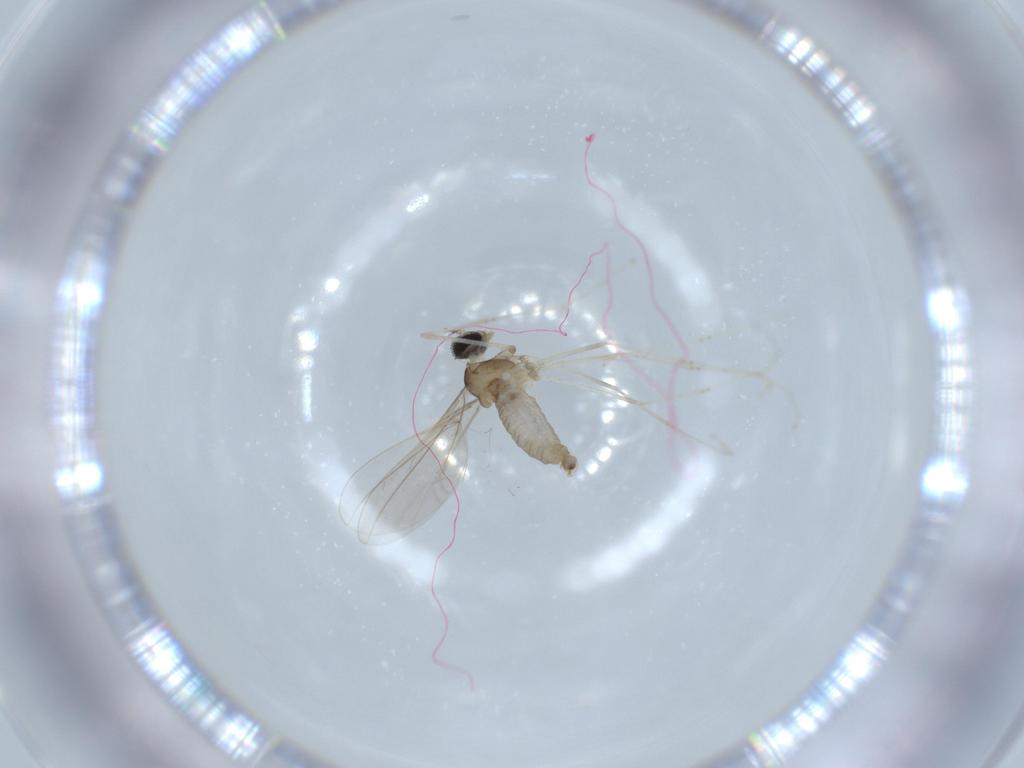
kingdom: Animalia
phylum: Arthropoda
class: Insecta
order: Diptera
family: Cecidomyiidae
